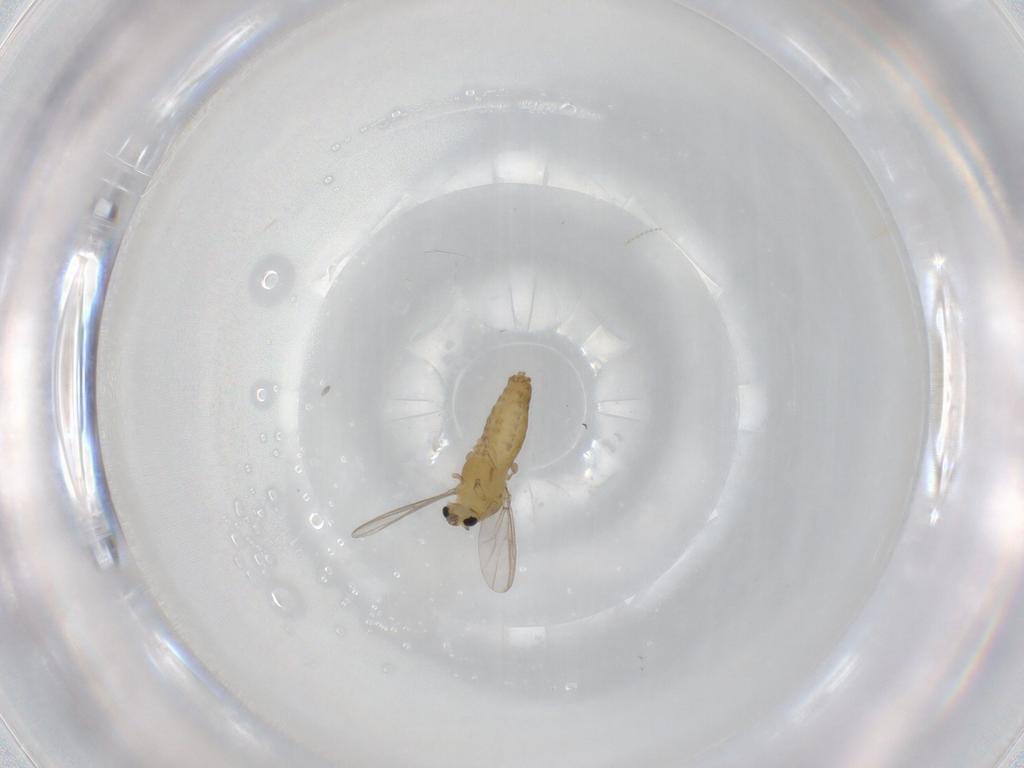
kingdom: Animalia
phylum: Arthropoda
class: Insecta
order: Diptera
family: Chironomidae
